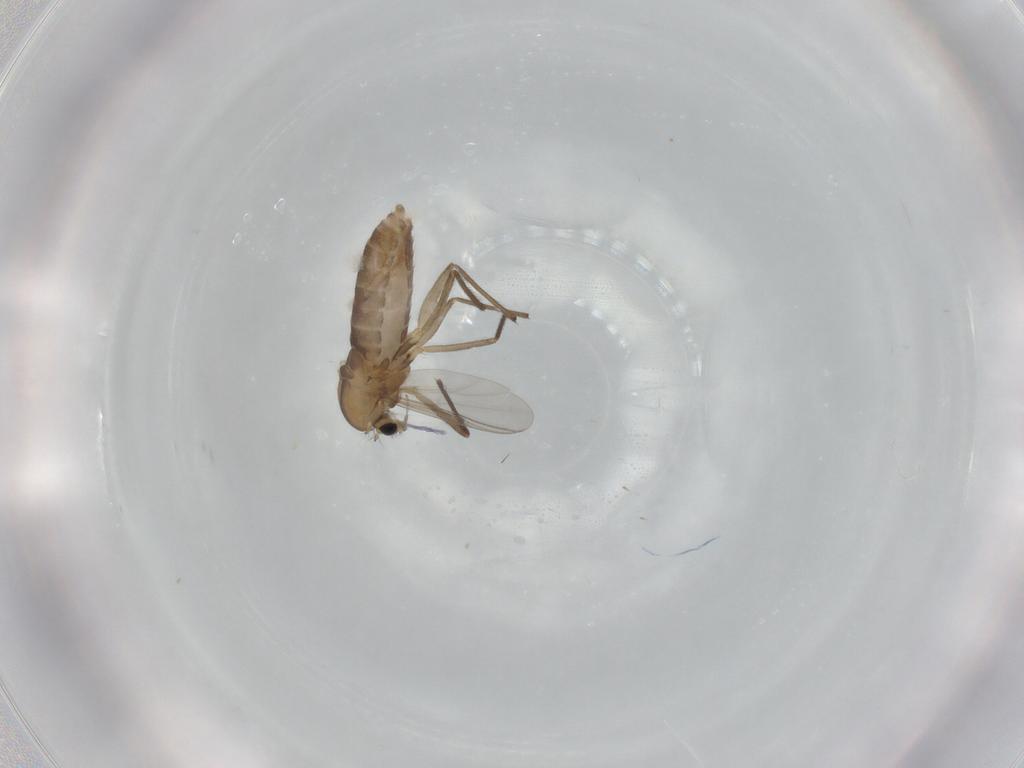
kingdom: Animalia
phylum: Arthropoda
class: Insecta
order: Diptera
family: Chironomidae
